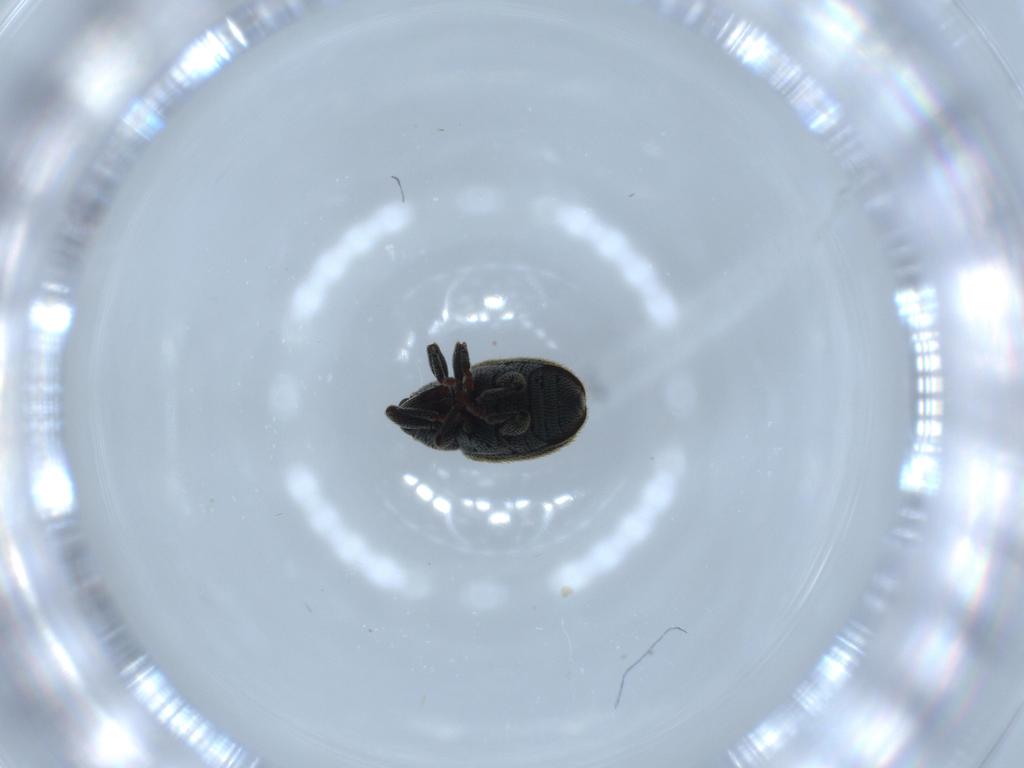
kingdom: Animalia
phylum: Arthropoda
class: Insecta
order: Coleoptera
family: Curculionidae
